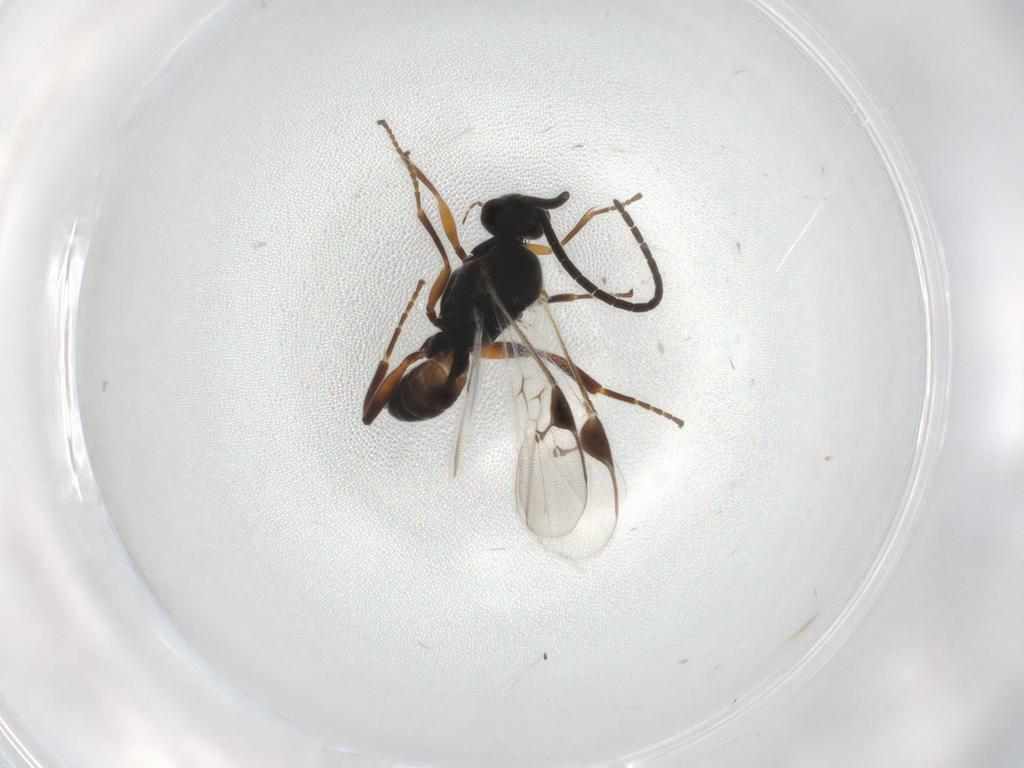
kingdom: Animalia
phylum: Arthropoda
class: Insecta
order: Hymenoptera
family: Braconidae
